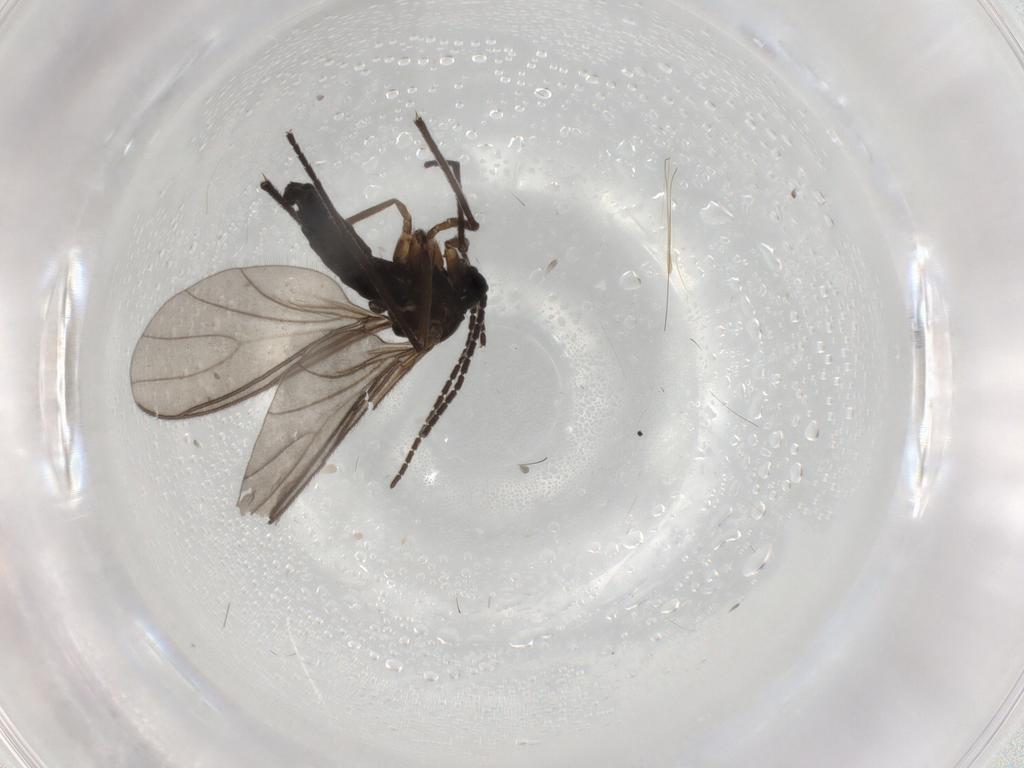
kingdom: Animalia
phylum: Arthropoda
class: Insecta
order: Diptera
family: Sciaridae
